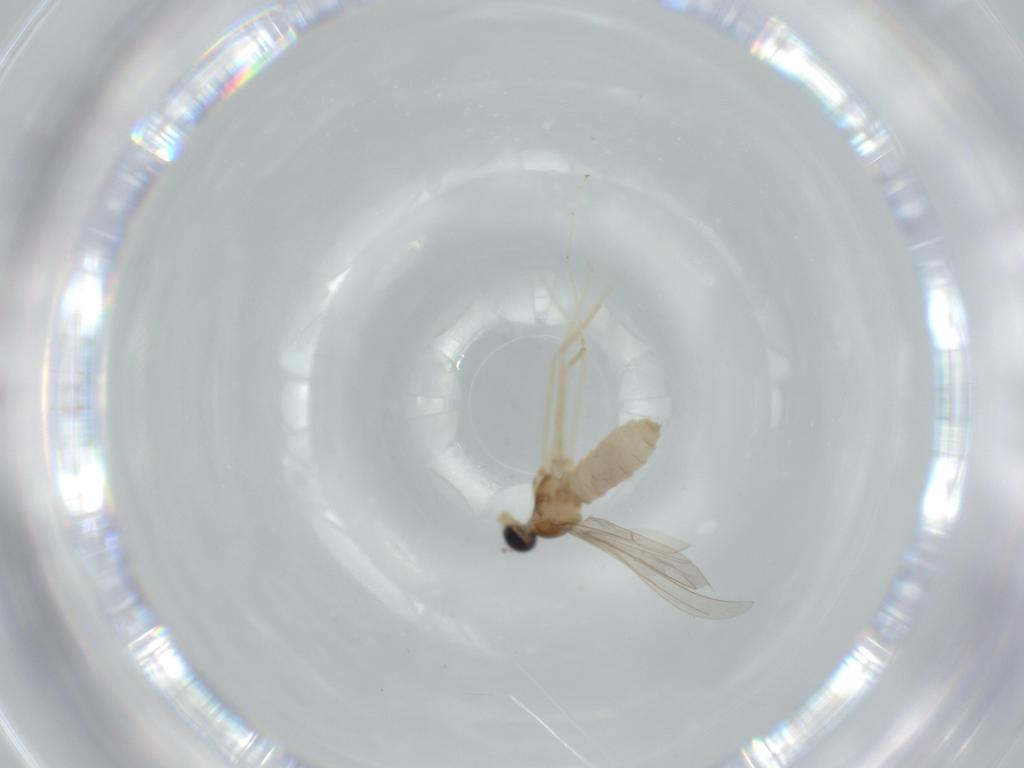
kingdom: Animalia
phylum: Arthropoda
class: Insecta
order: Diptera
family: Cecidomyiidae
